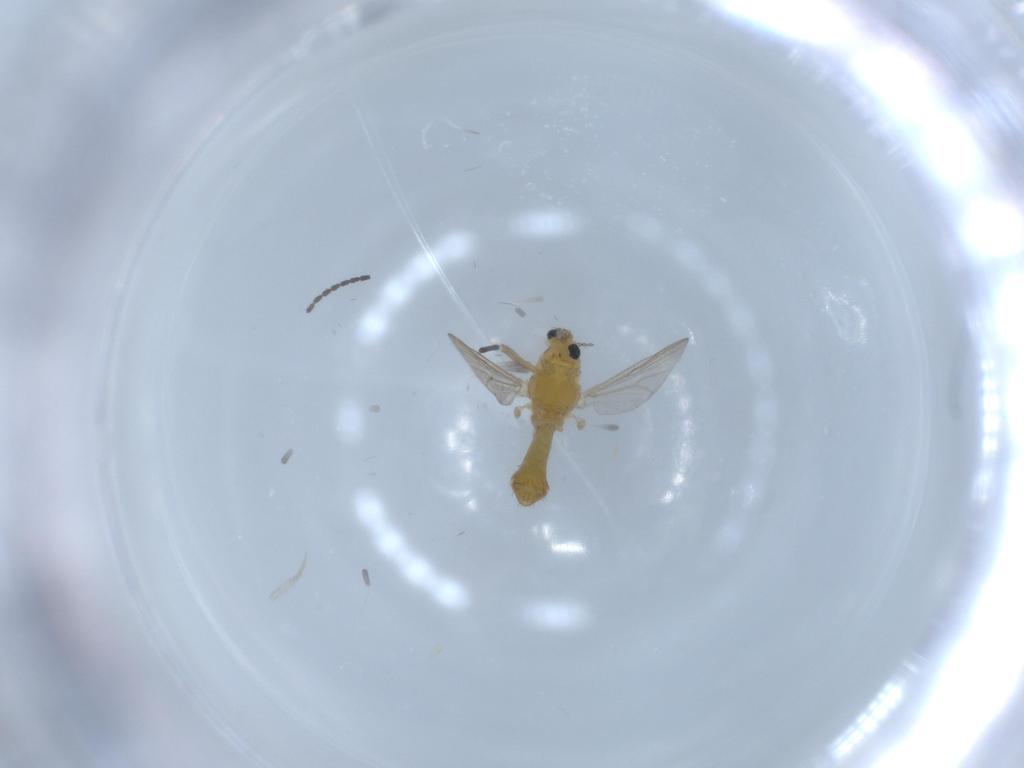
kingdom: Animalia
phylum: Arthropoda
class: Insecta
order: Diptera
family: Chironomidae
